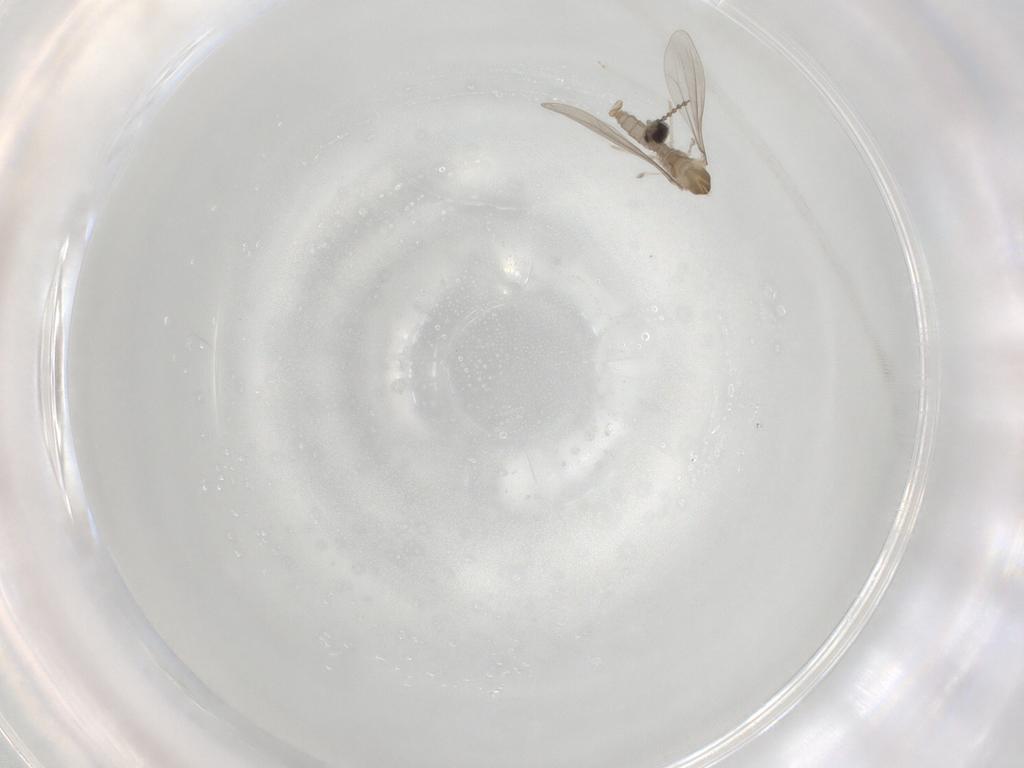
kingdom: Animalia
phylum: Arthropoda
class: Insecta
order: Diptera
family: Cecidomyiidae
